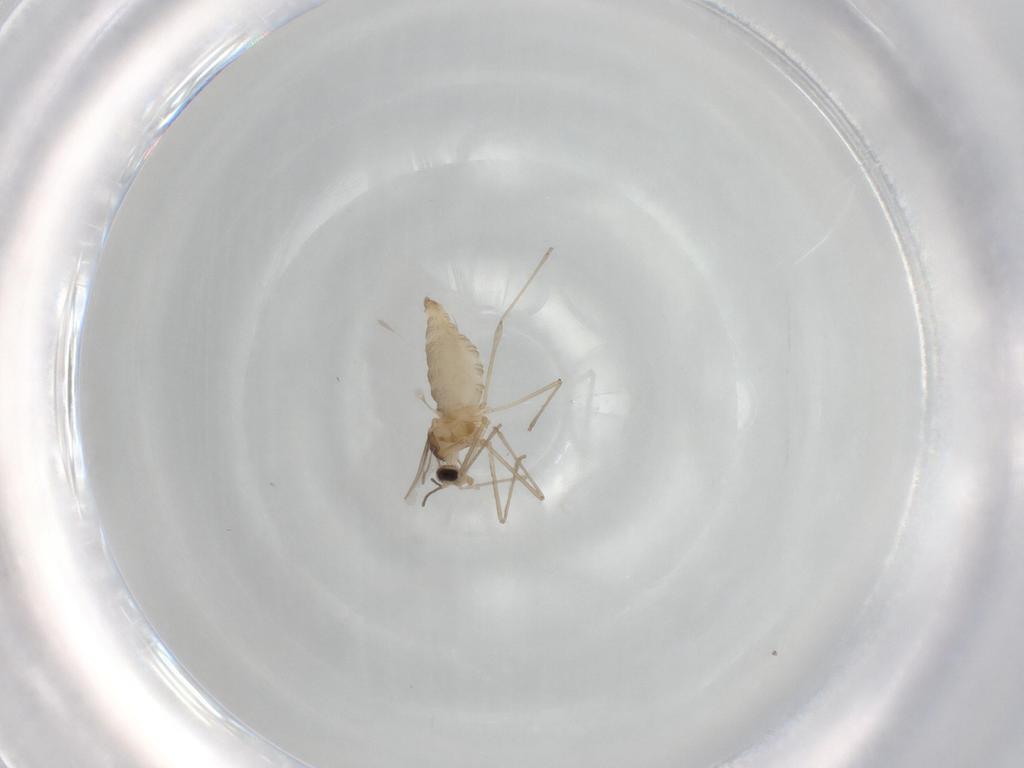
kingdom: Animalia
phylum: Arthropoda
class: Insecta
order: Diptera
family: Cecidomyiidae
